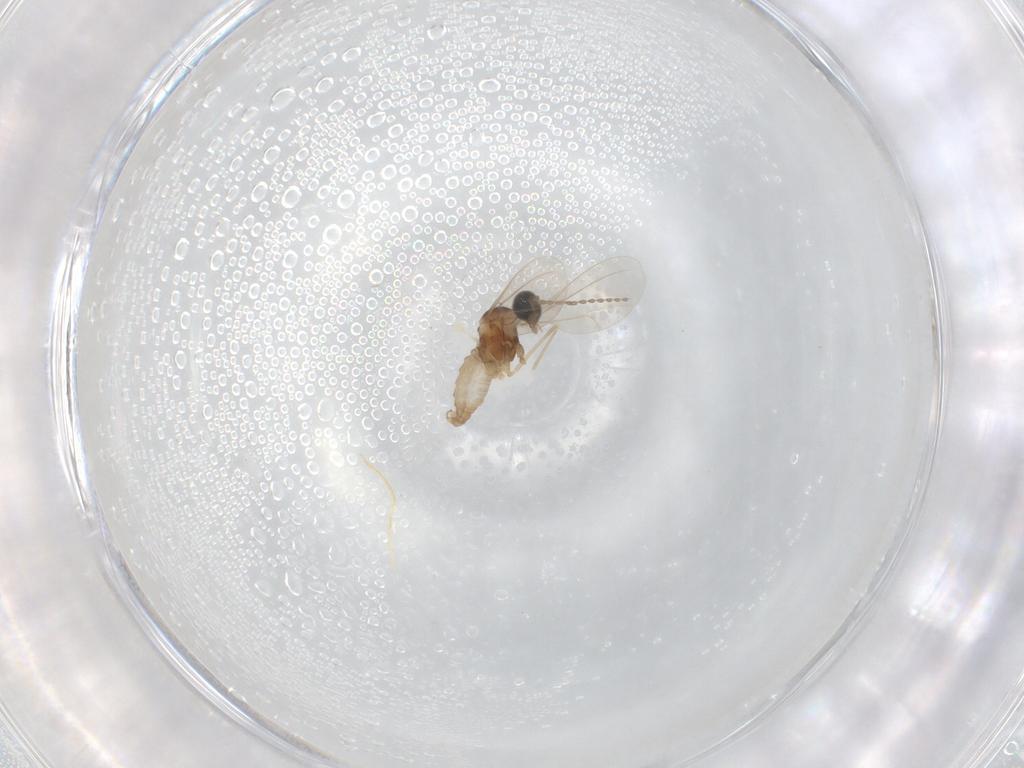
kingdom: Animalia
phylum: Arthropoda
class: Insecta
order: Diptera
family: Cecidomyiidae
